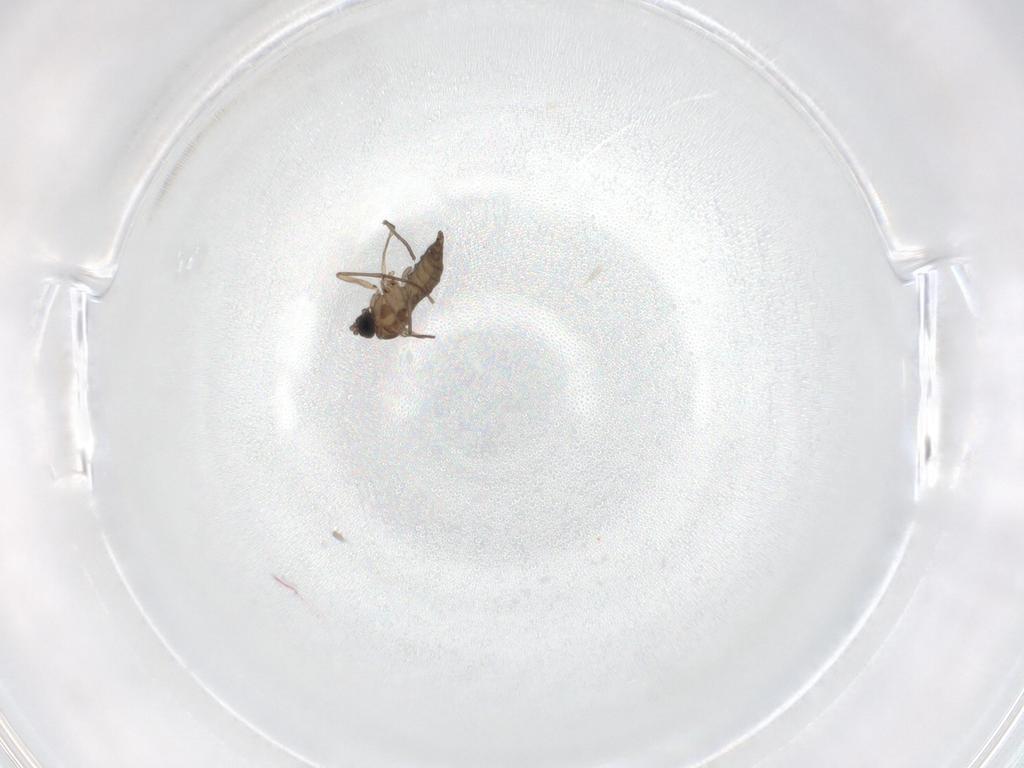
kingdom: Animalia
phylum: Arthropoda
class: Insecta
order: Diptera
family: Sciaridae
